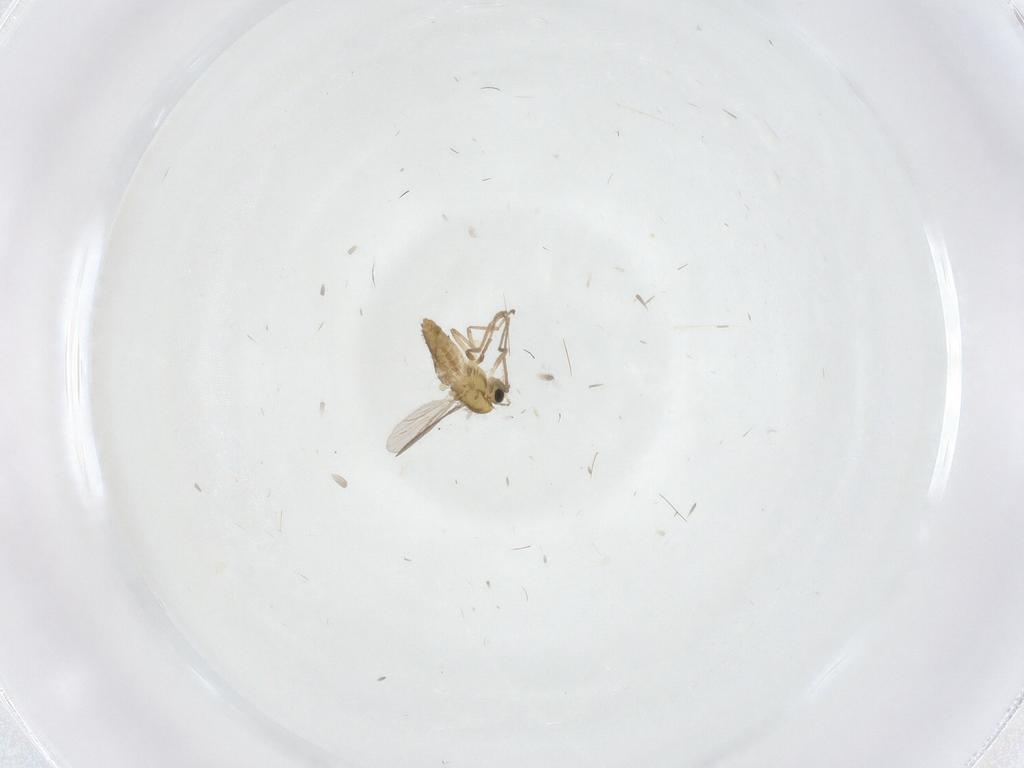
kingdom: Animalia
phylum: Arthropoda
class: Insecta
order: Diptera
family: Chironomidae
